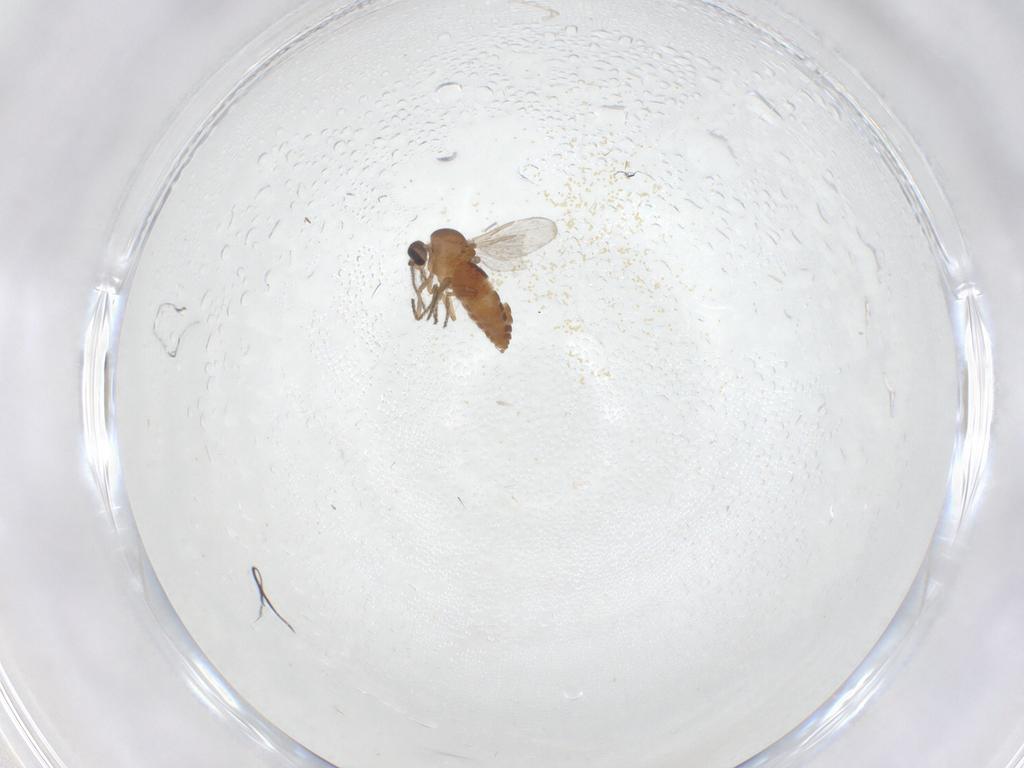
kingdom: Animalia
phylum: Arthropoda
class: Insecta
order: Diptera
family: Ceratopogonidae
